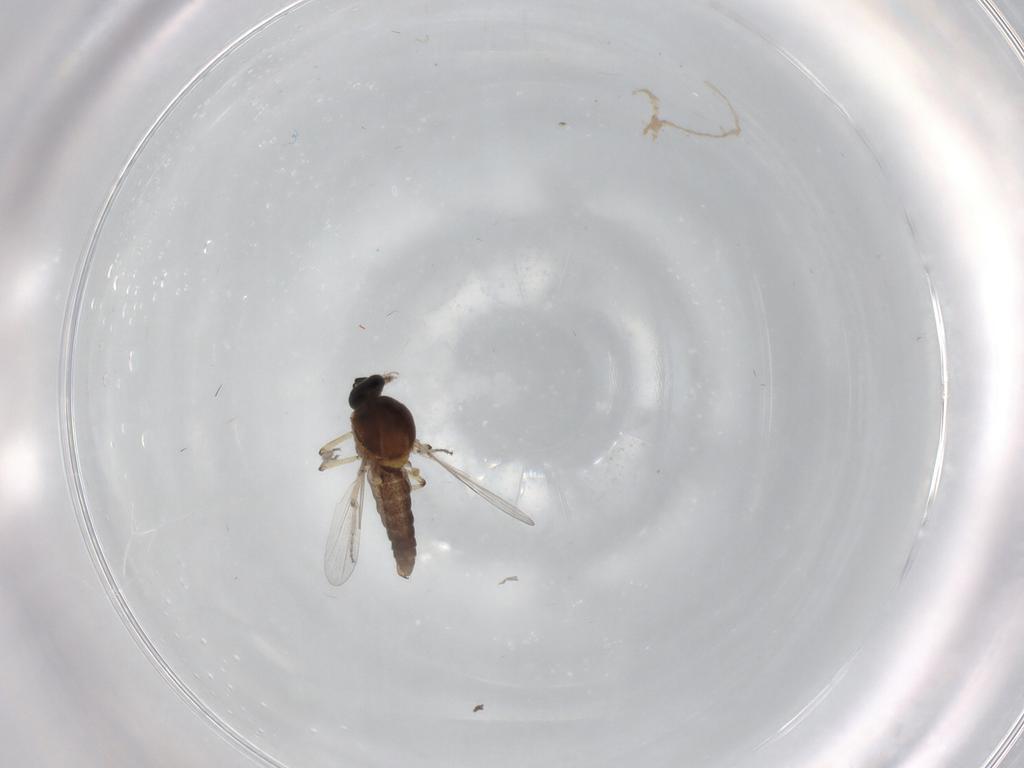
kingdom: Animalia
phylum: Arthropoda
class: Insecta
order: Diptera
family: Ceratopogonidae
